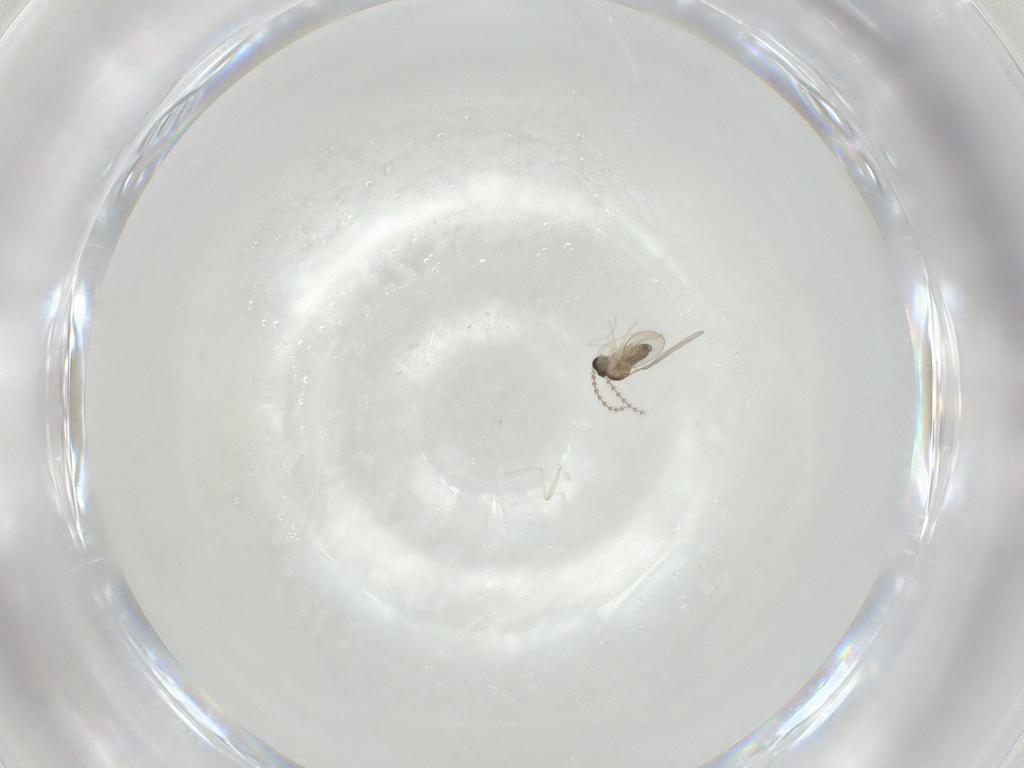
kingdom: Animalia
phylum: Arthropoda
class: Insecta
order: Diptera
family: Cecidomyiidae
